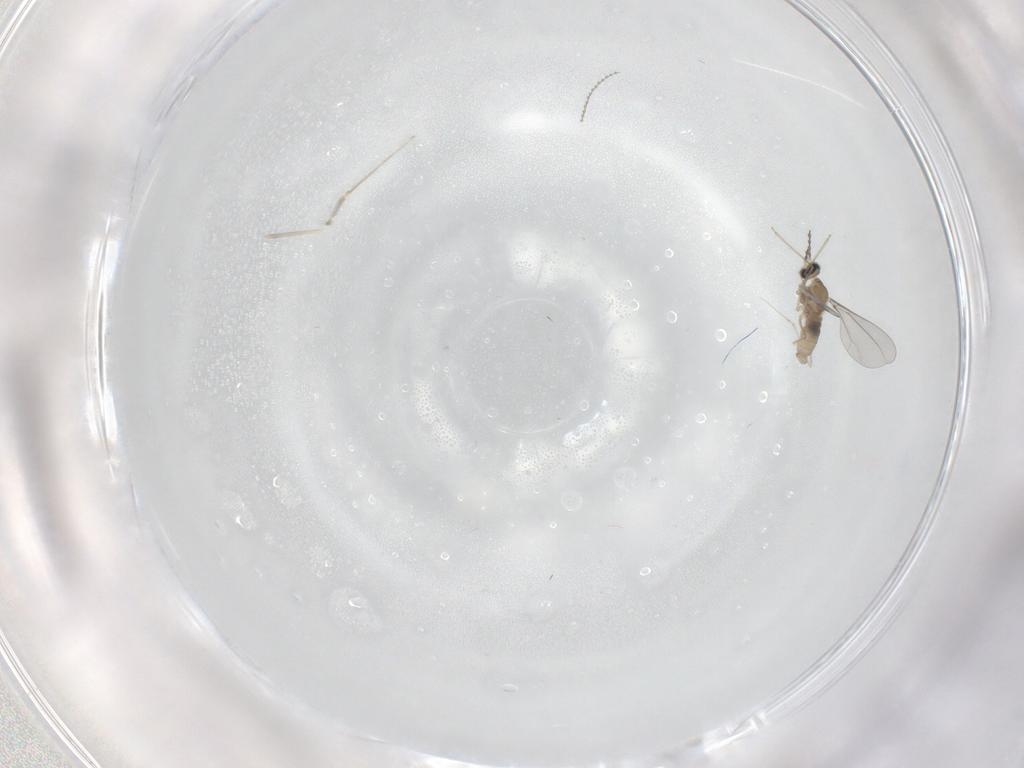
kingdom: Animalia
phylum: Arthropoda
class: Insecta
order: Diptera
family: Cecidomyiidae
